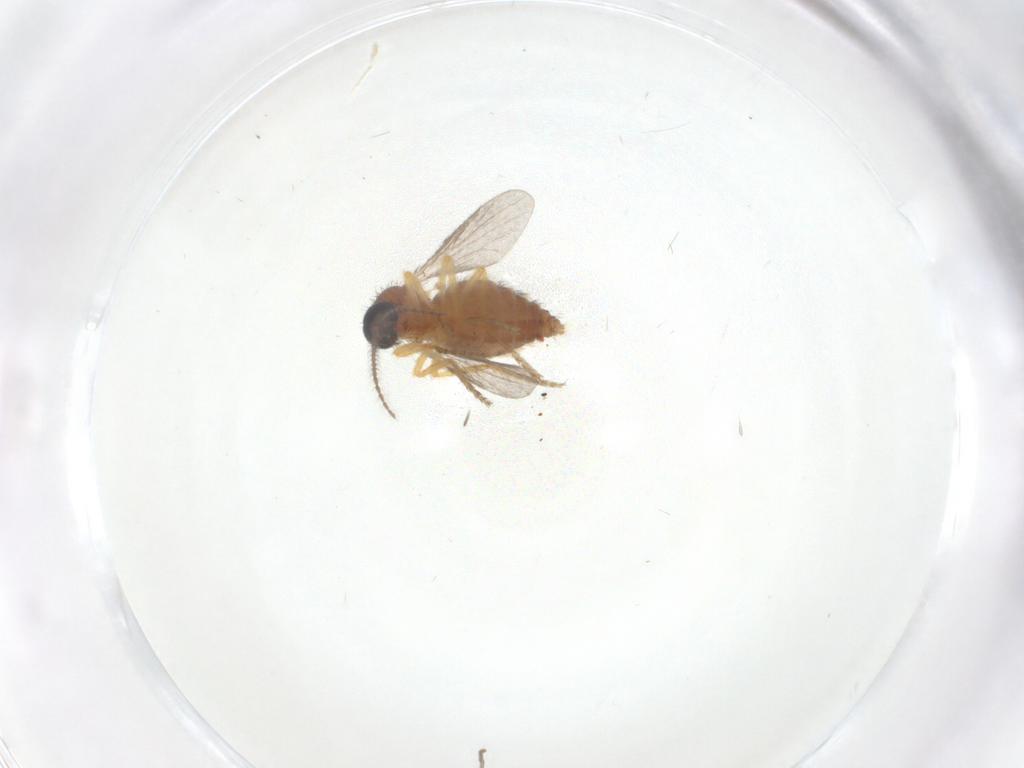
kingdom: Animalia
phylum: Arthropoda
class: Insecta
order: Diptera
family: Ceratopogonidae
